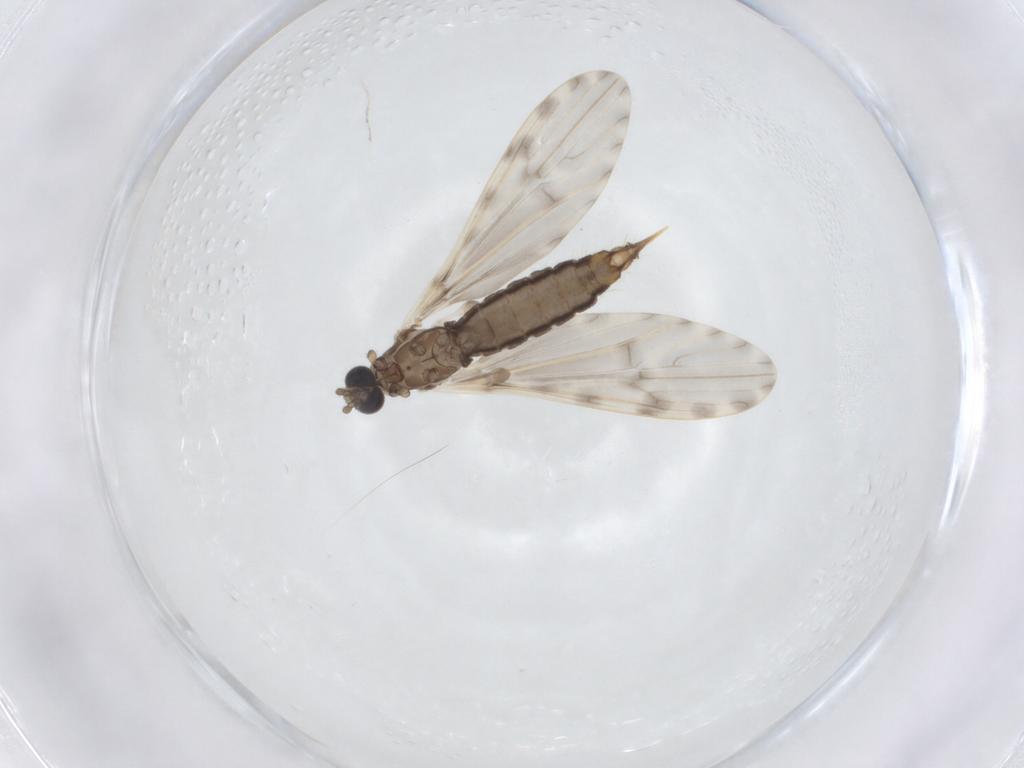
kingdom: Animalia
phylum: Arthropoda
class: Insecta
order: Diptera
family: Limoniidae
